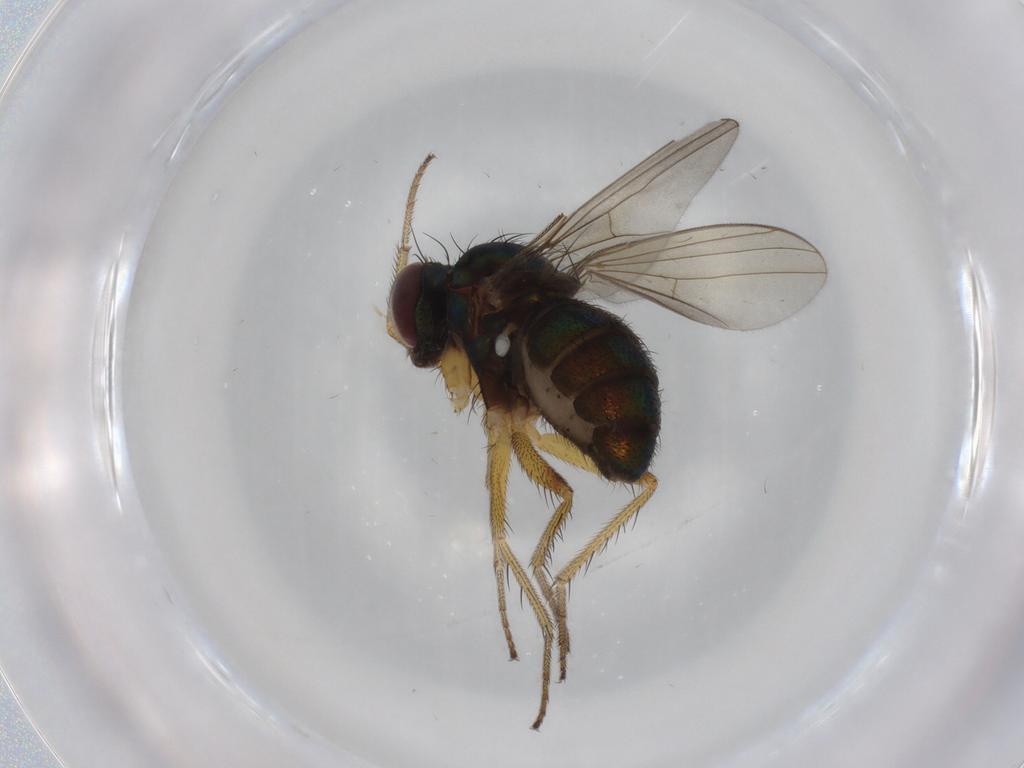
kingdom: Animalia
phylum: Arthropoda
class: Insecta
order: Diptera
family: Dolichopodidae
